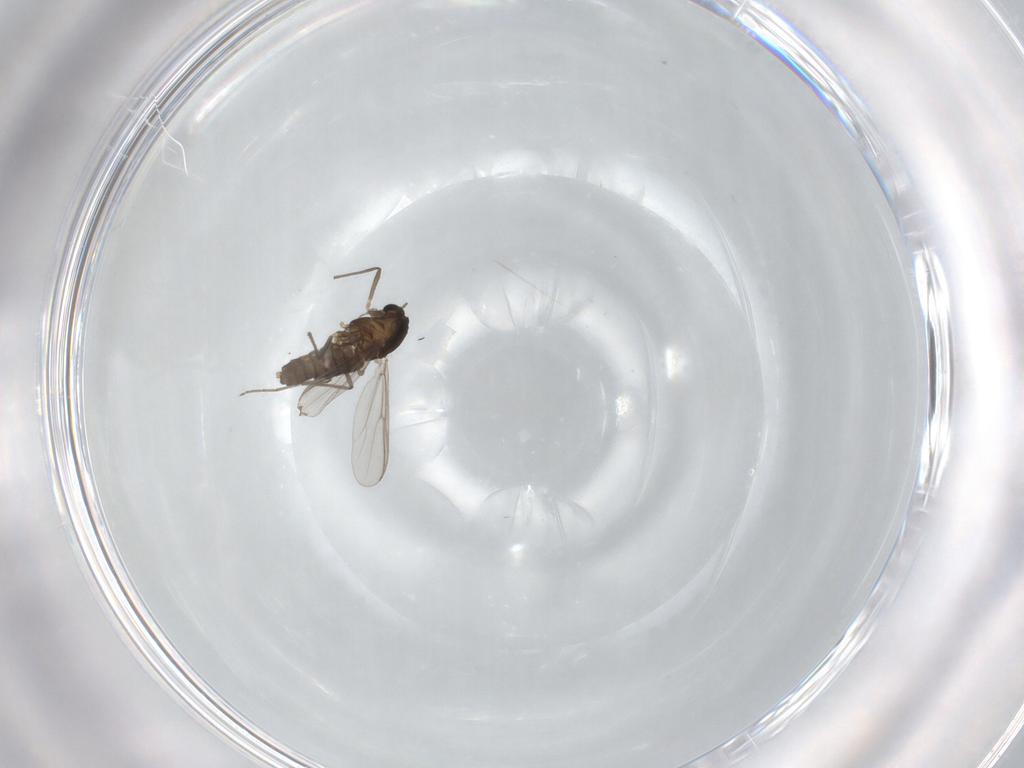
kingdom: Animalia
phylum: Arthropoda
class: Insecta
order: Diptera
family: Chironomidae
